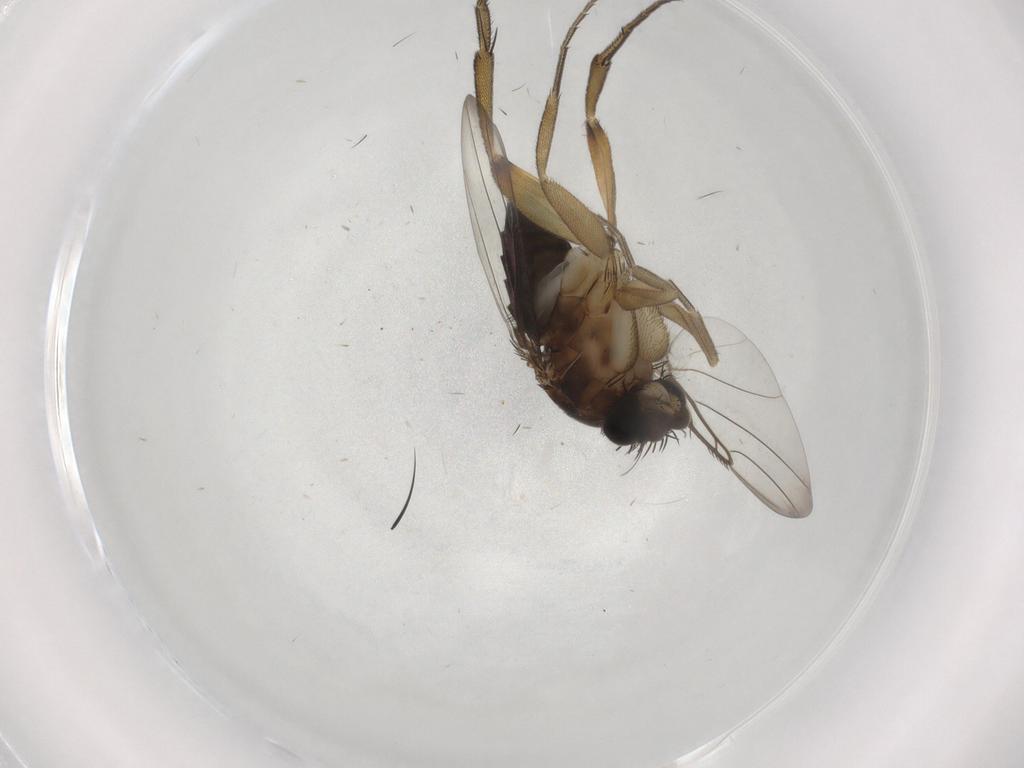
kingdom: Animalia
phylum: Arthropoda
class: Insecta
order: Diptera
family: Phoridae
